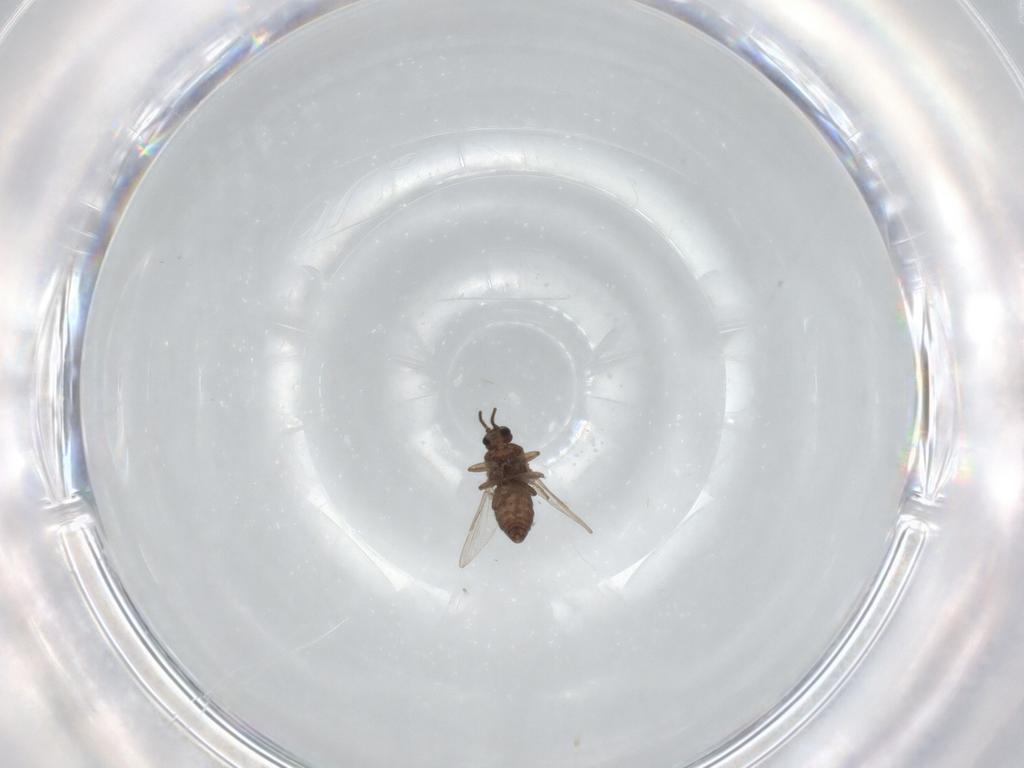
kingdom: Animalia
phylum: Arthropoda
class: Insecta
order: Diptera
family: Ceratopogonidae
